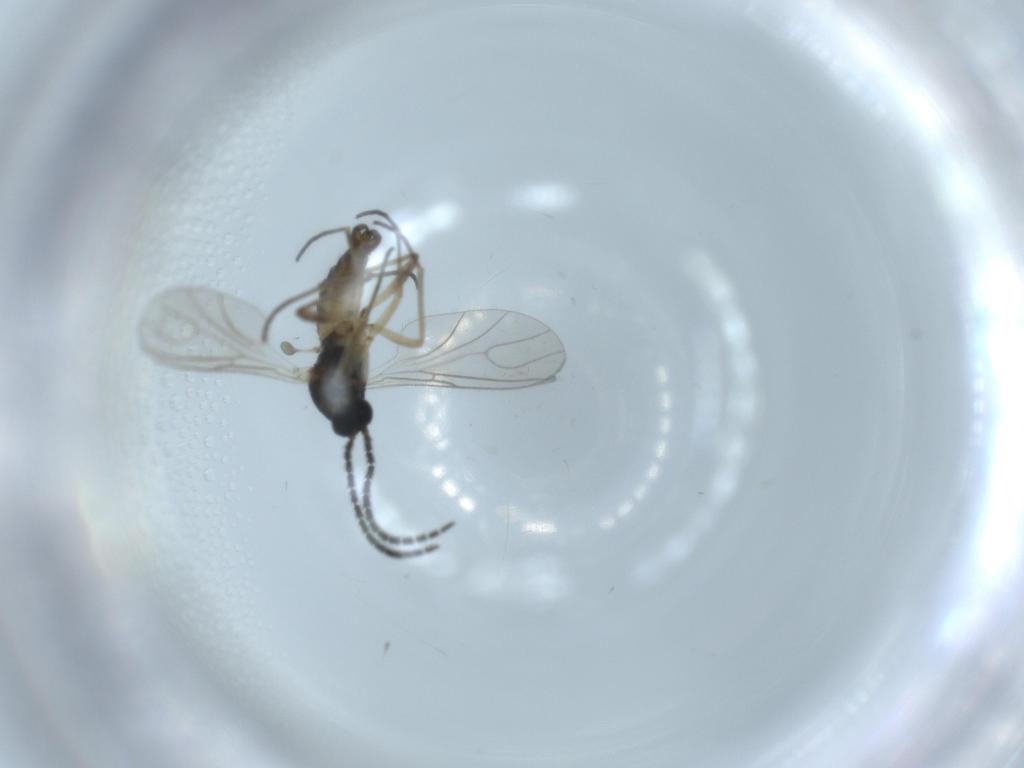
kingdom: Animalia
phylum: Arthropoda
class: Insecta
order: Diptera
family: Sciaridae
